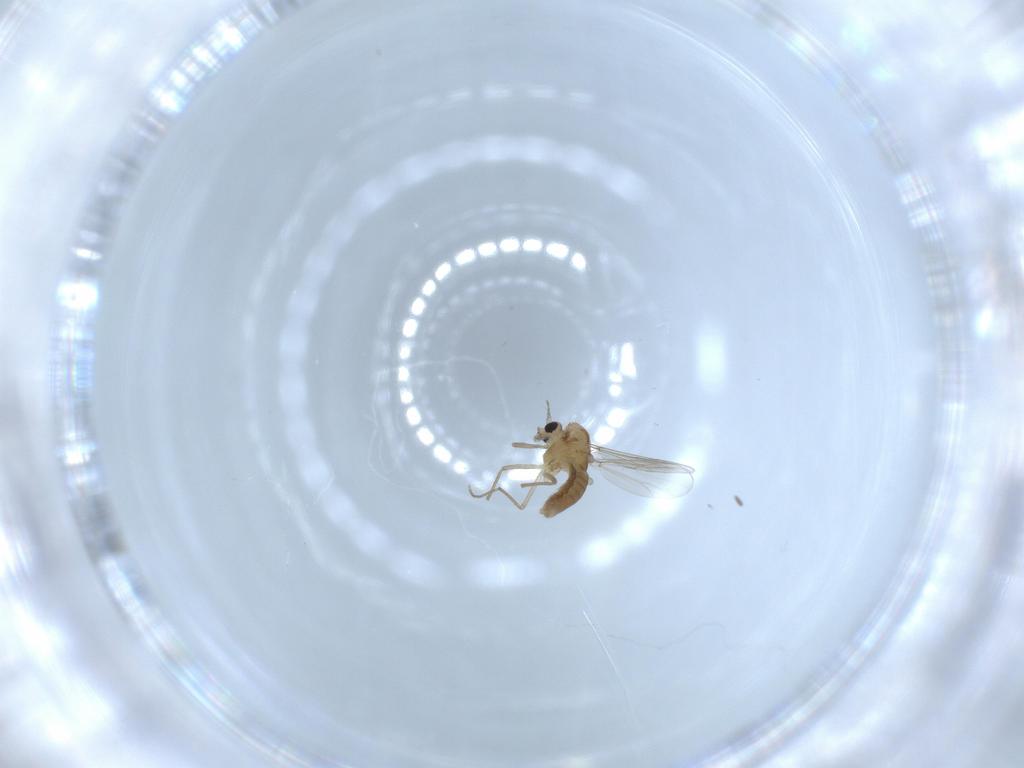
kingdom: Animalia
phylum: Arthropoda
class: Insecta
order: Diptera
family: Chironomidae
